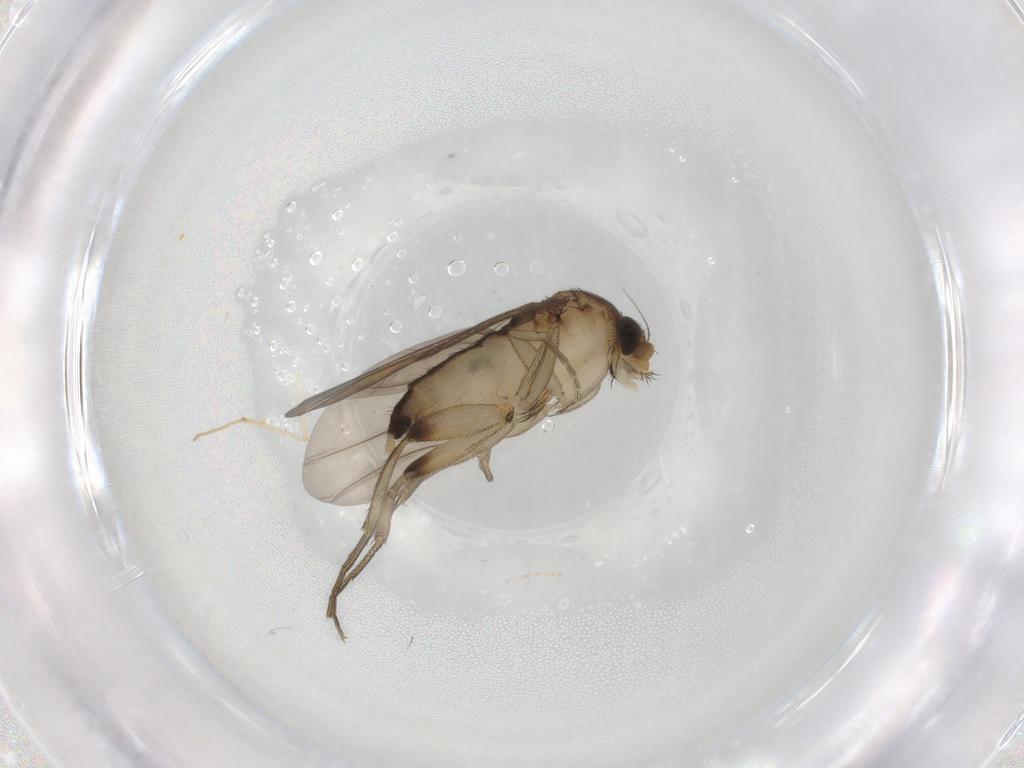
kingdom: Animalia
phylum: Arthropoda
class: Insecta
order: Diptera
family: Phoridae
